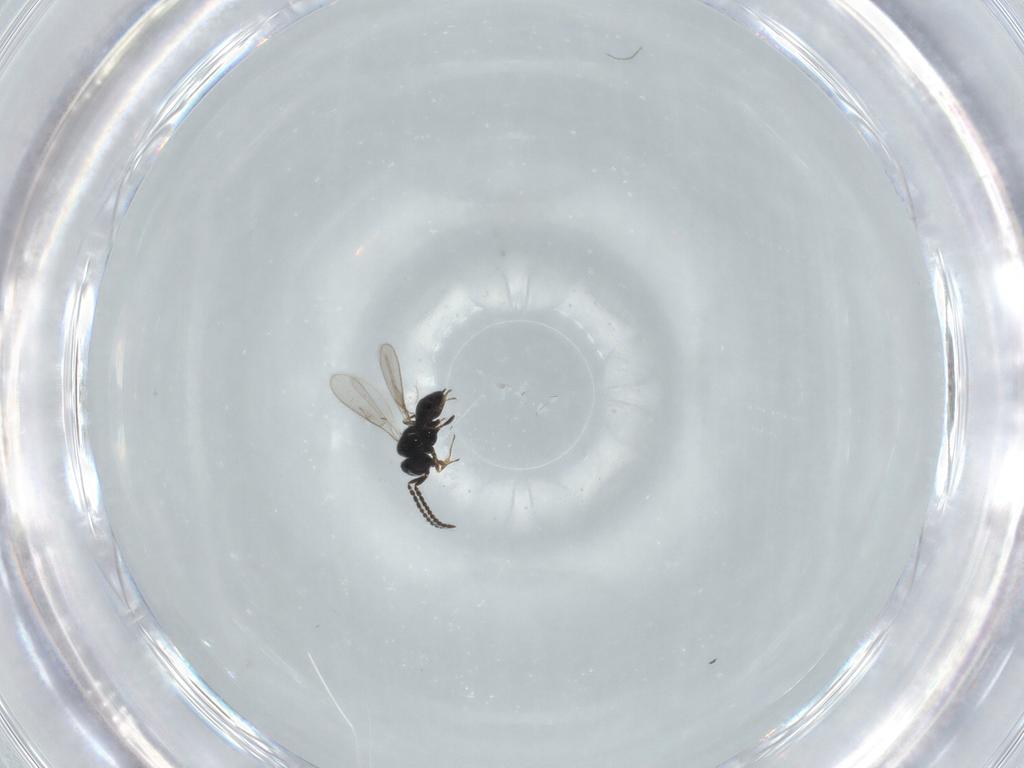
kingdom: Animalia
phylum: Arthropoda
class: Insecta
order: Hymenoptera
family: Scelionidae
